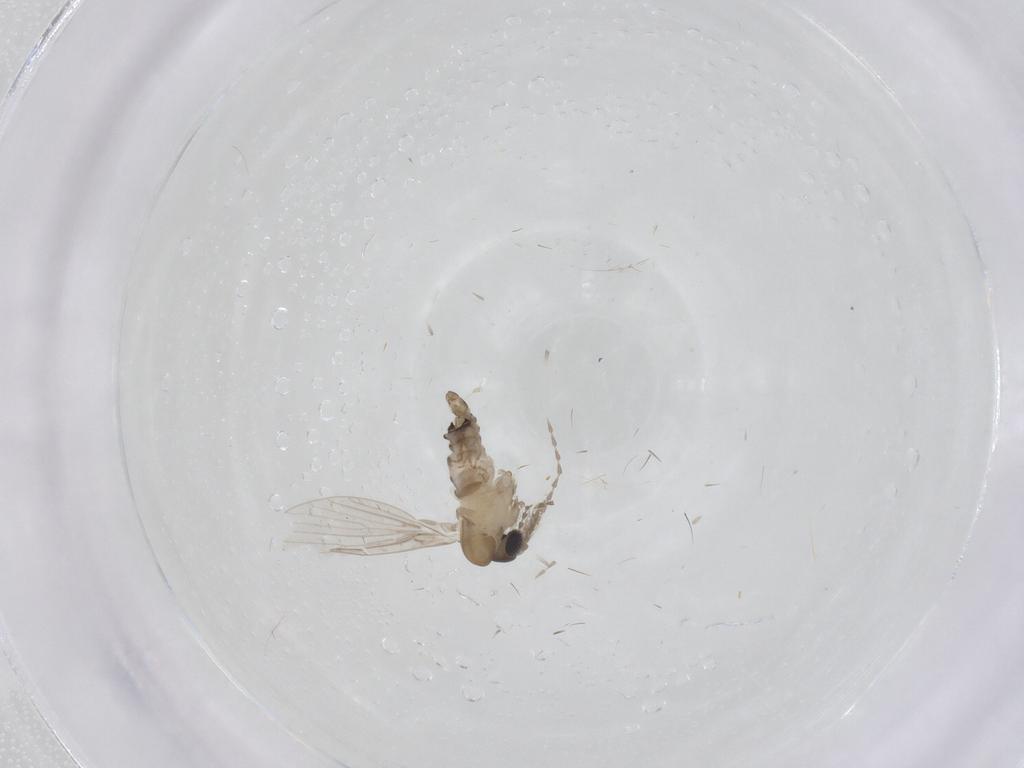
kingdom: Animalia
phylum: Arthropoda
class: Insecta
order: Diptera
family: Psychodidae
